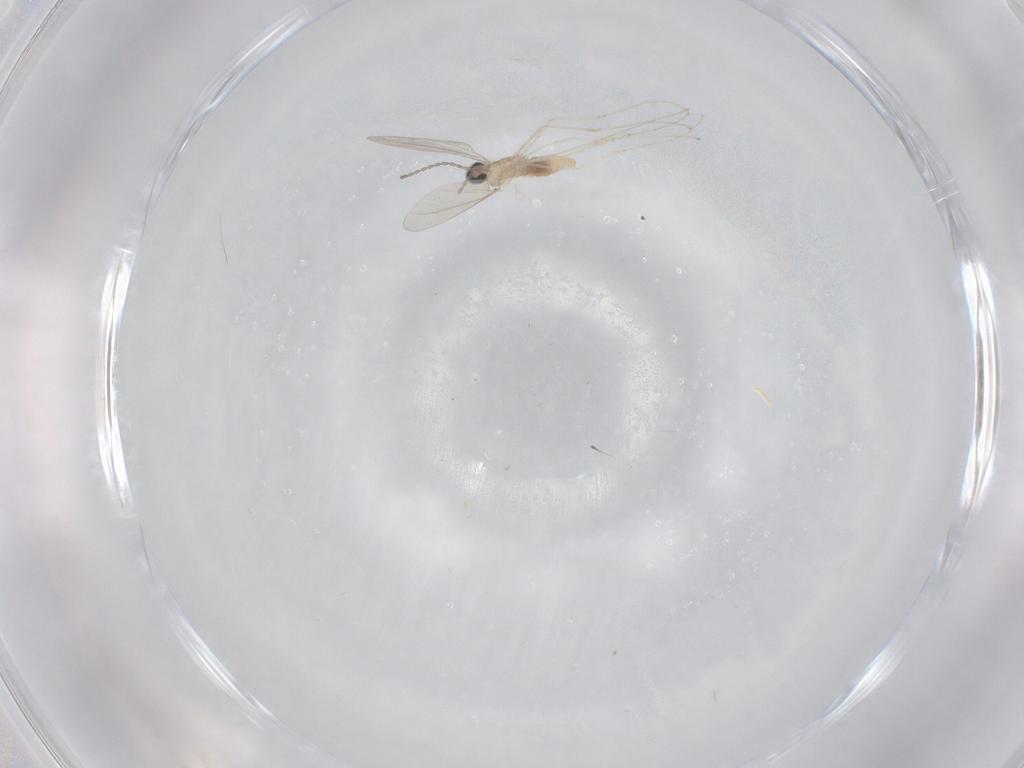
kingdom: Animalia
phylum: Arthropoda
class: Insecta
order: Diptera
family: Cecidomyiidae
